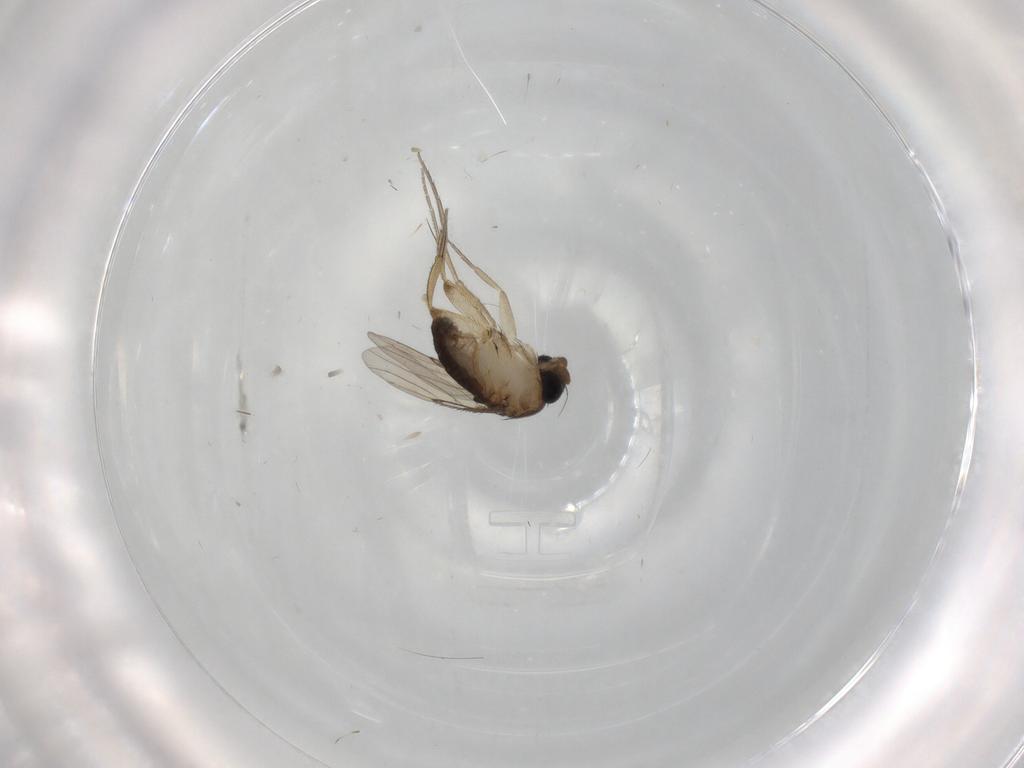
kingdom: Animalia
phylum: Arthropoda
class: Insecta
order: Diptera
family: Phoridae
